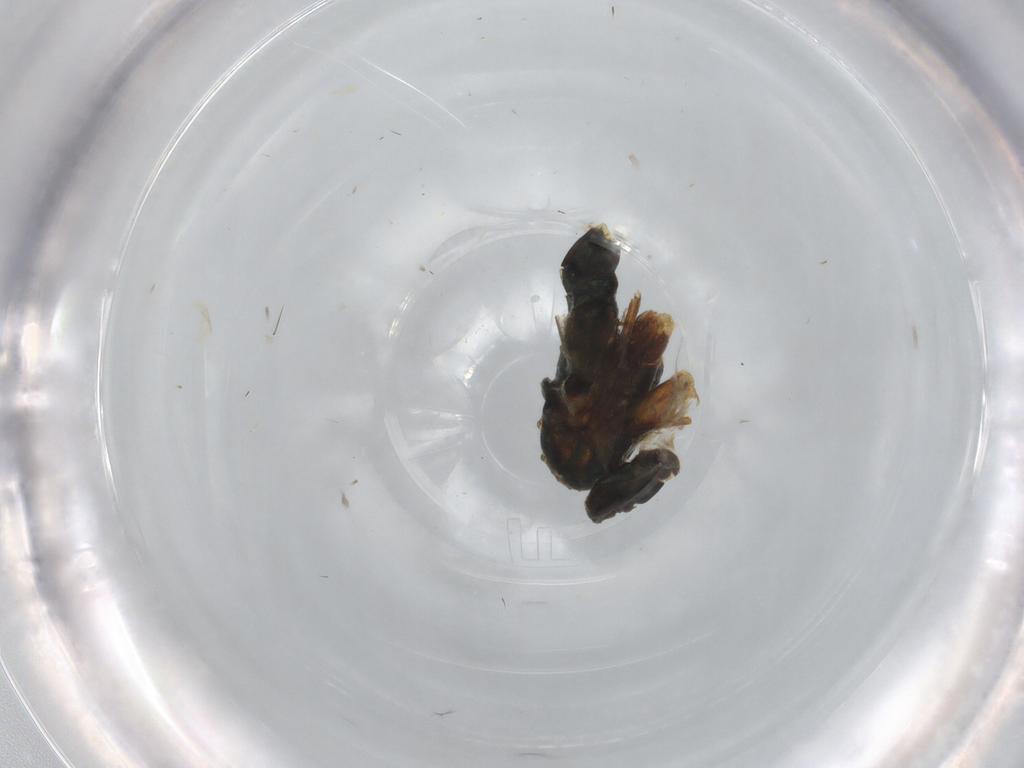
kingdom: Animalia
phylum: Arthropoda
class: Insecta
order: Diptera
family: Dolichopodidae
